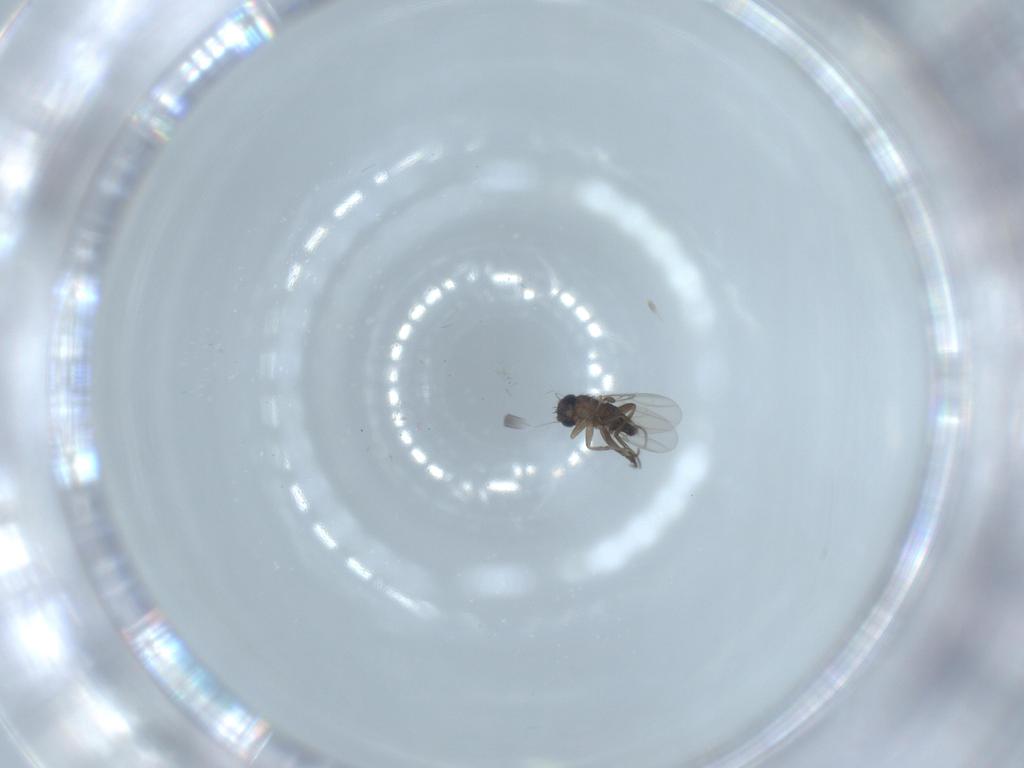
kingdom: Animalia
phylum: Arthropoda
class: Insecta
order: Diptera
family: Phoridae
